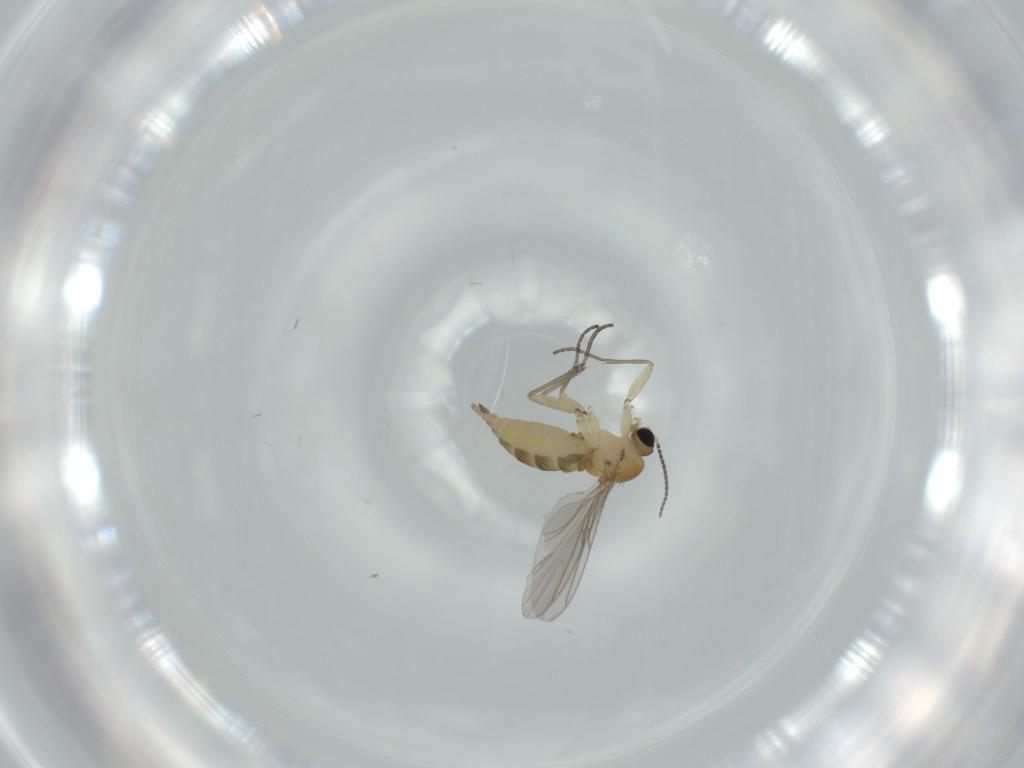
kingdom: Animalia
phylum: Arthropoda
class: Insecta
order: Diptera
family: Sciaridae
